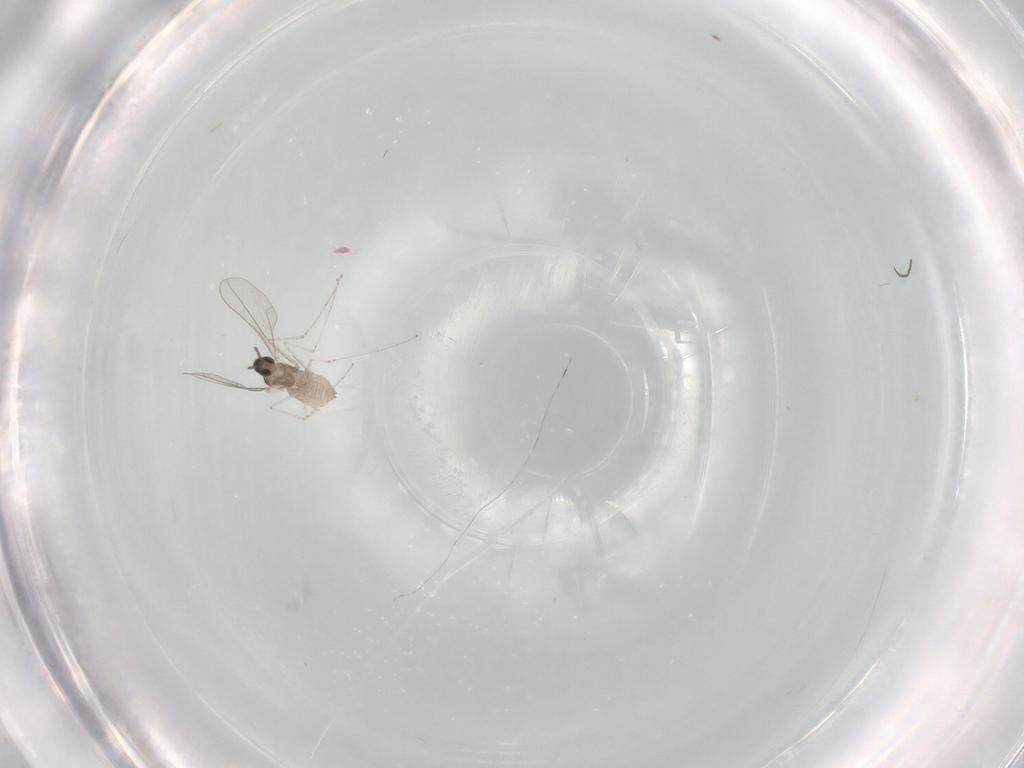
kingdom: Animalia
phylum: Arthropoda
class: Insecta
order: Diptera
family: Cecidomyiidae
